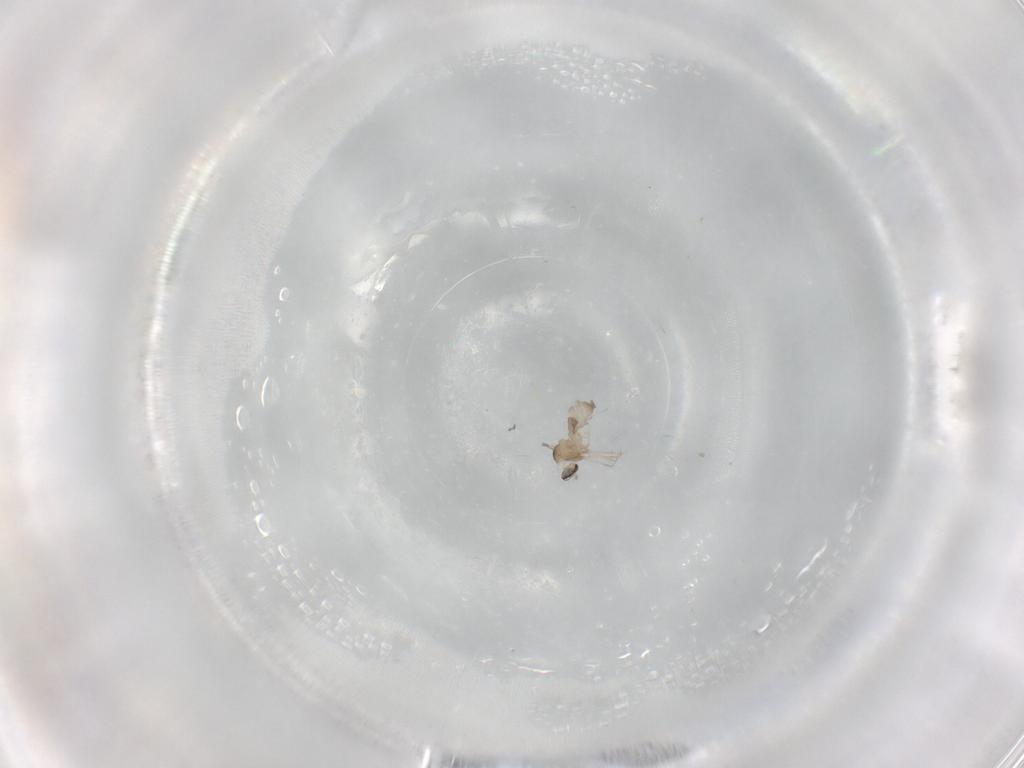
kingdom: Animalia
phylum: Arthropoda
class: Insecta
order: Diptera
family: Cecidomyiidae
